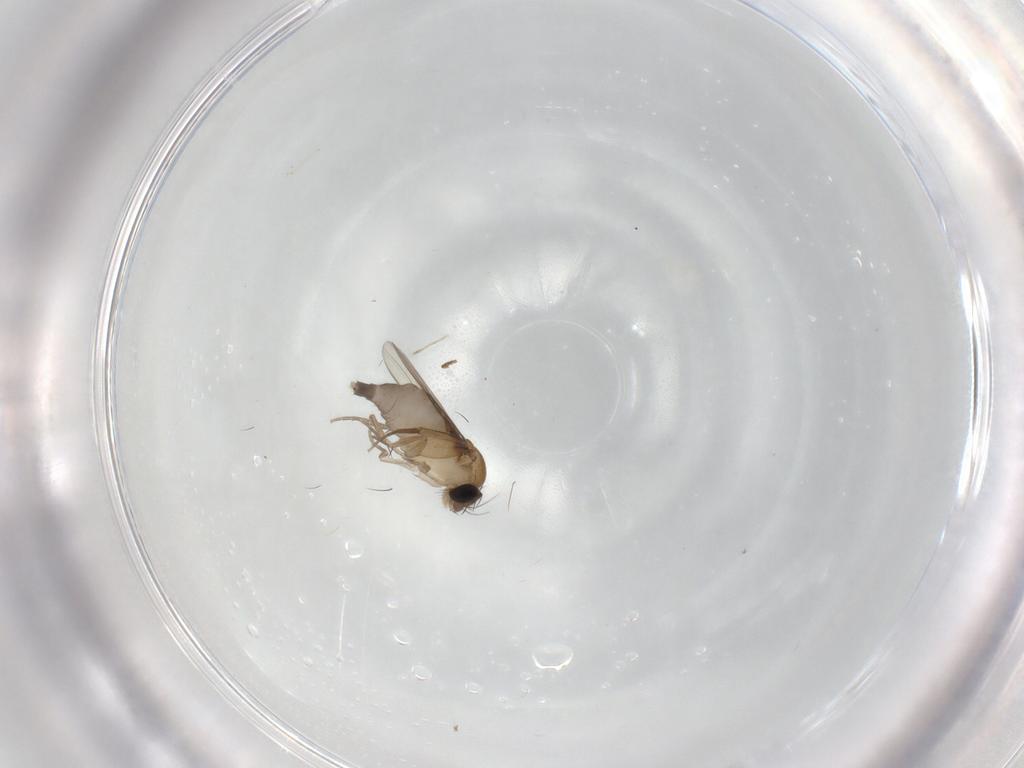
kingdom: Animalia
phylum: Arthropoda
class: Insecta
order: Diptera
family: Phoridae
